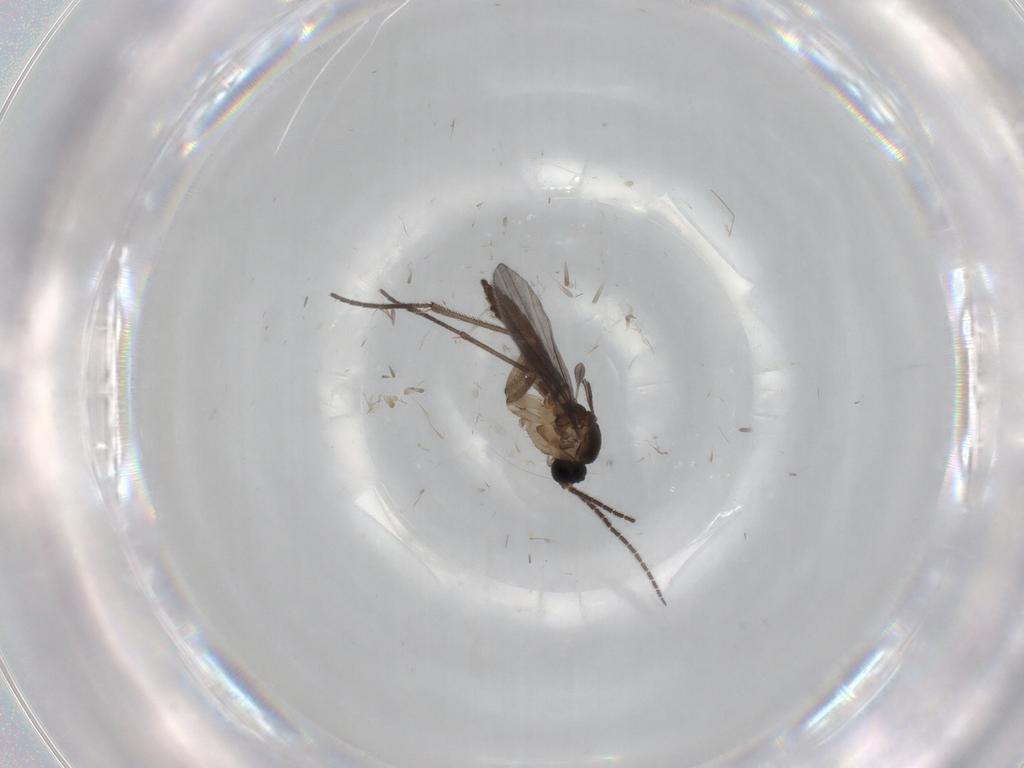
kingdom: Animalia
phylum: Arthropoda
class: Insecta
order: Diptera
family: Sciaridae
